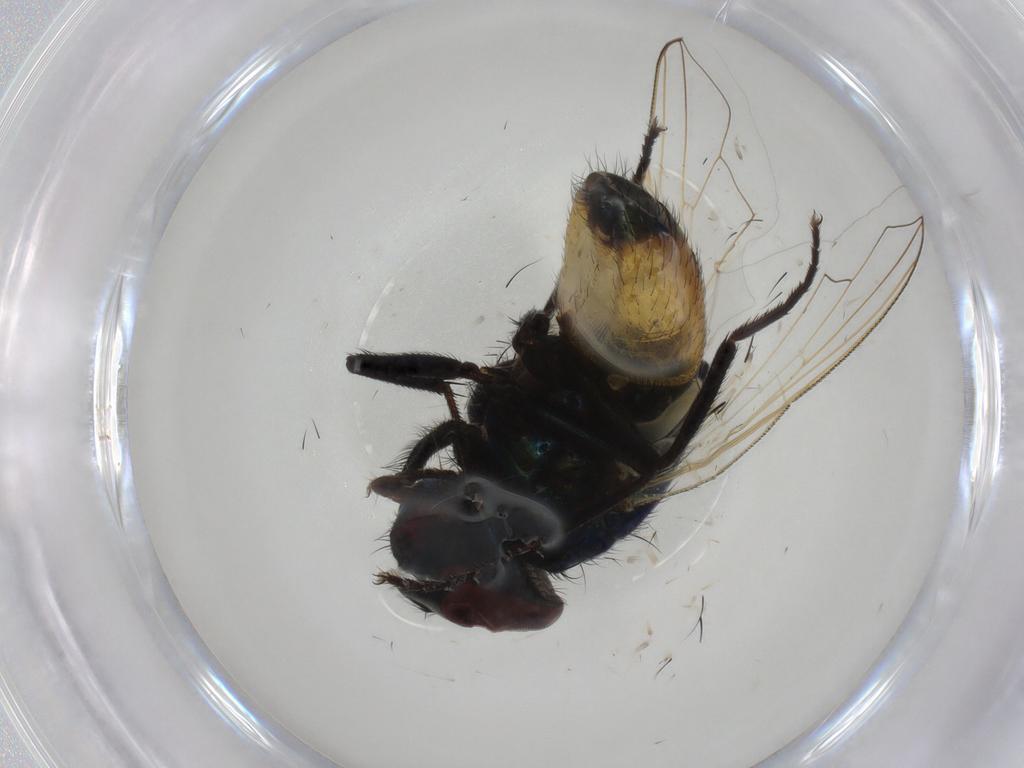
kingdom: Animalia
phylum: Arthropoda
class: Insecta
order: Diptera
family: Muscidae
